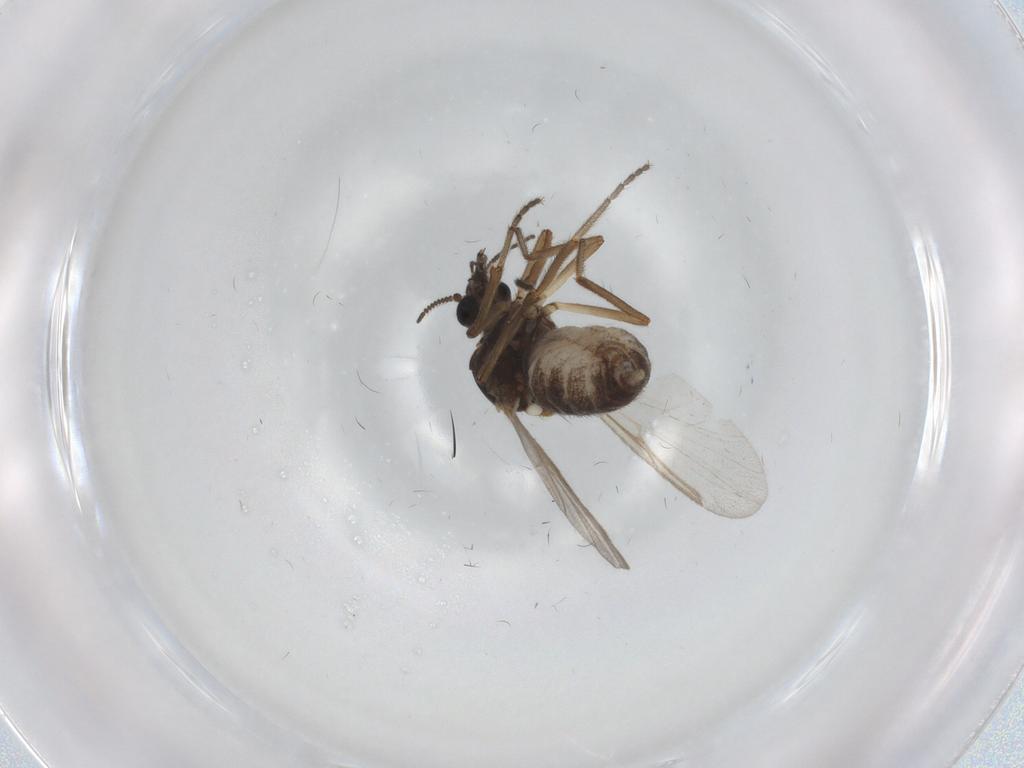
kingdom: Animalia
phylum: Arthropoda
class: Insecta
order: Diptera
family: Ceratopogonidae
